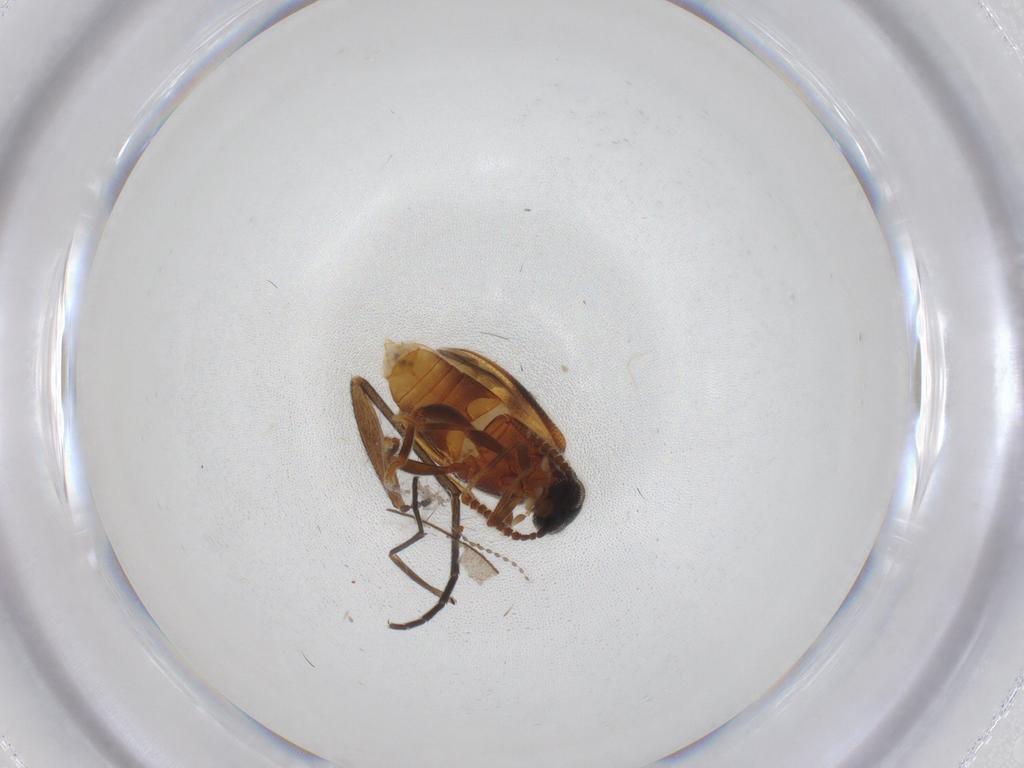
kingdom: Animalia
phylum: Arthropoda
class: Insecta
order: Coleoptera
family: Aderidae
